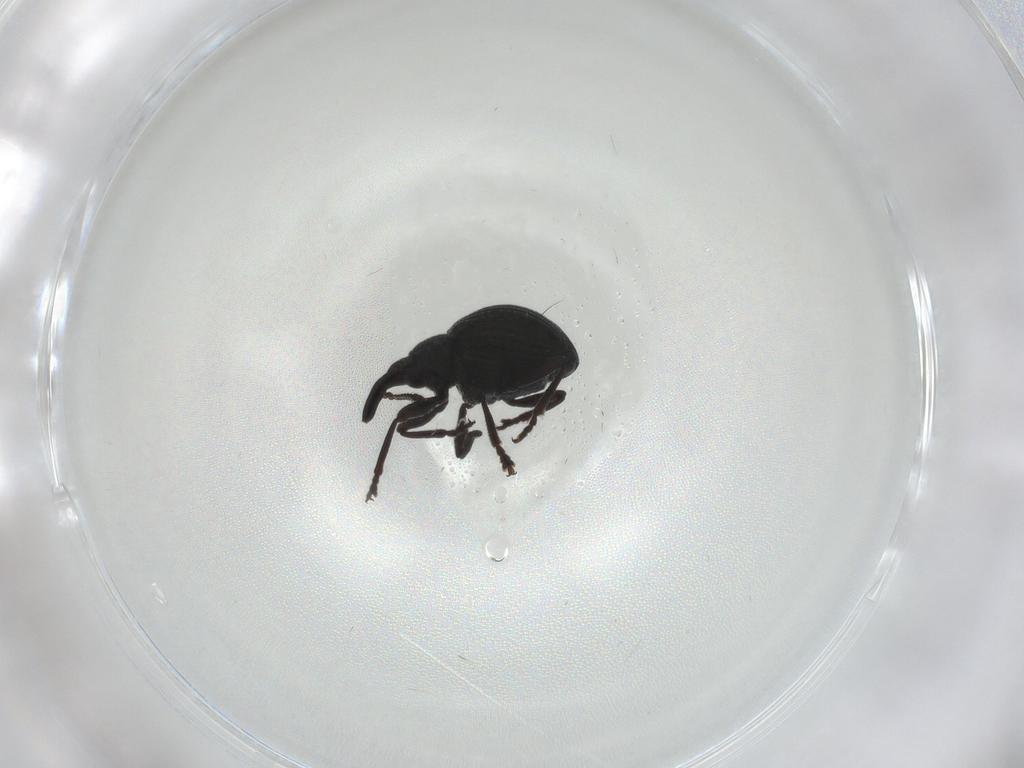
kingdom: Animalia
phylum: Arthropoda
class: Insecta
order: Coleoptera
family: Brentidae
